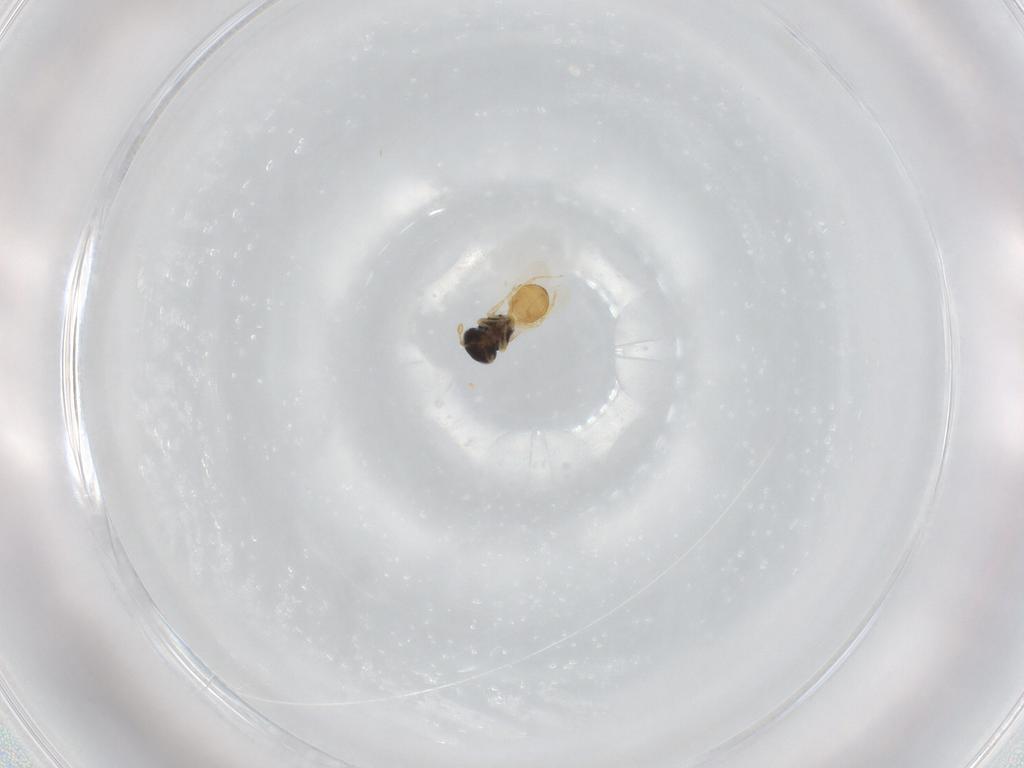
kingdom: Animalia
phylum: Arthropoda
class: Insecta
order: Hymenoptera
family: Scelionidae
